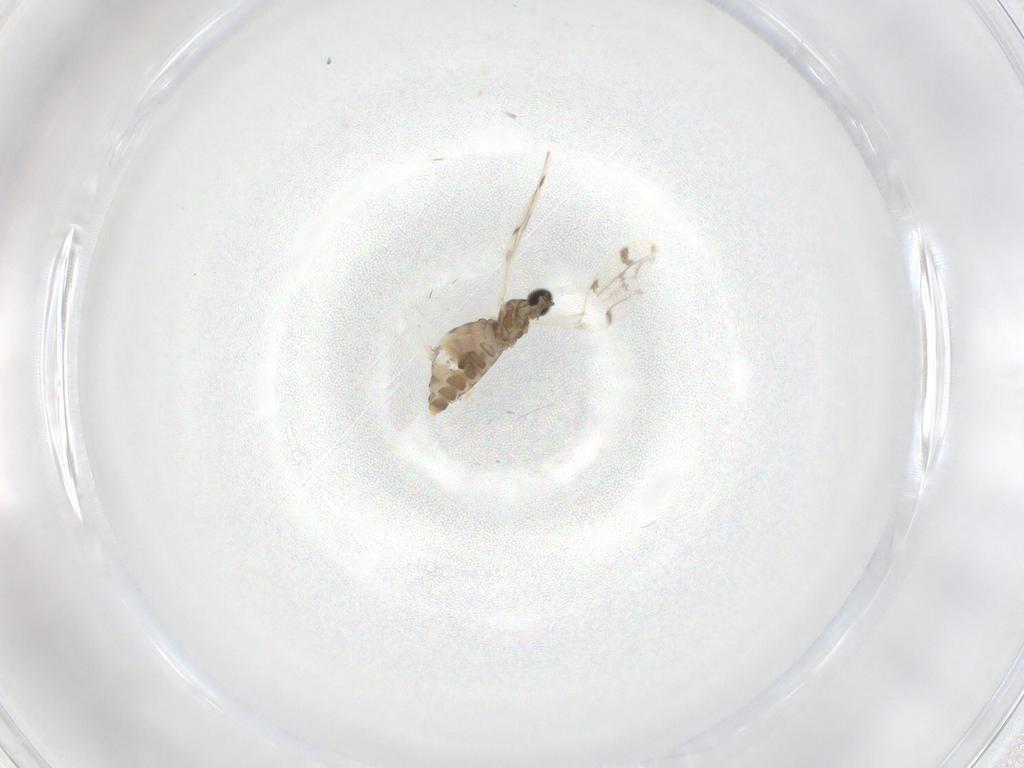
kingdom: Animalia
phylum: Arthropoda
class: Insecta
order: Diptera
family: Cecidomyiidae
